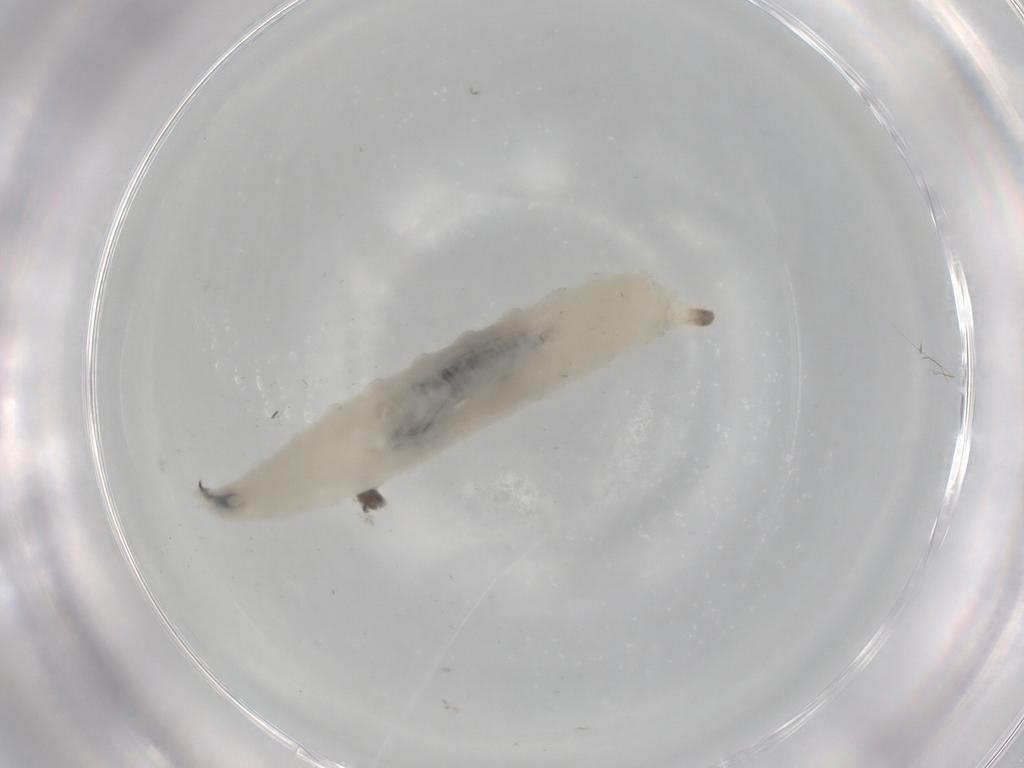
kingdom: Animalia
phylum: Arthropoda
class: Insecta
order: Diptera
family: Cecidomyiidae
